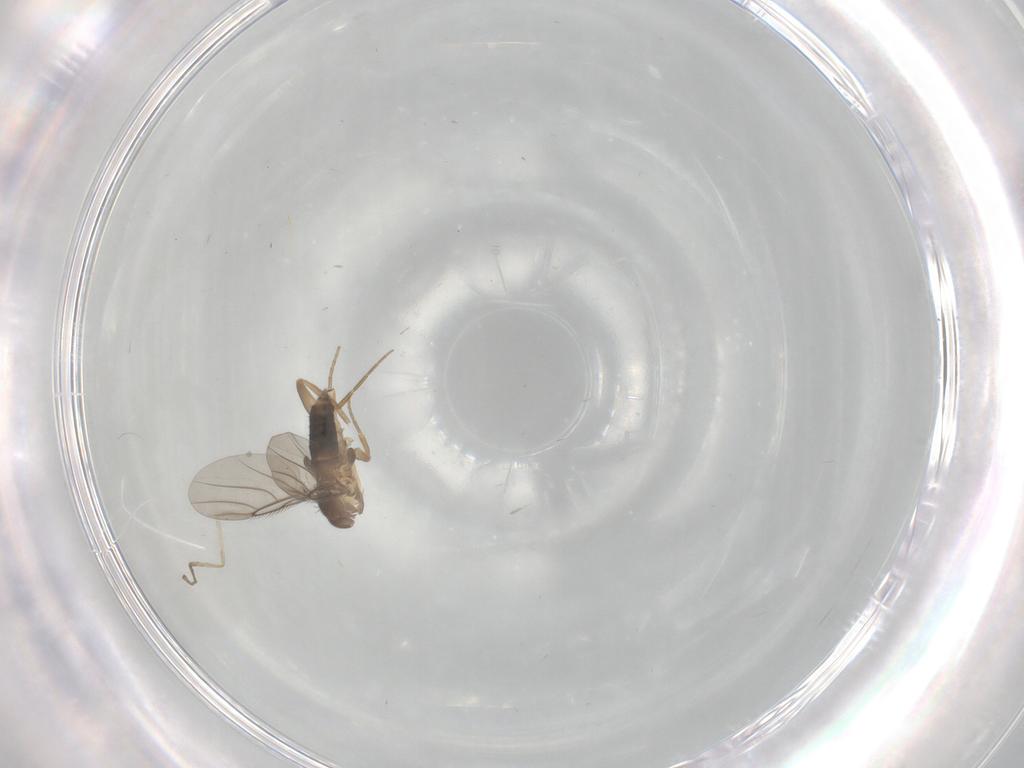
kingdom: Animalia
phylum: Arthropoda
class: Insecta
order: Diptera
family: Cecidomyiidae
